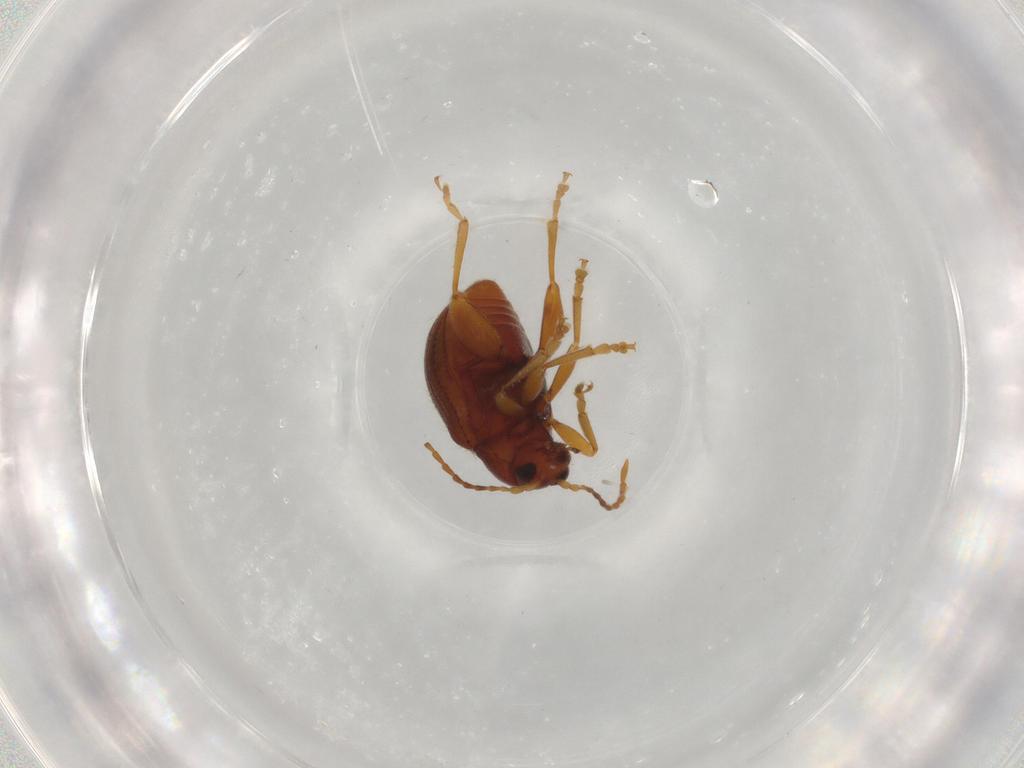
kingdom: Animalia
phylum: Arthropoda
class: Insecta
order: Coleoptera
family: Chrysomelidae
